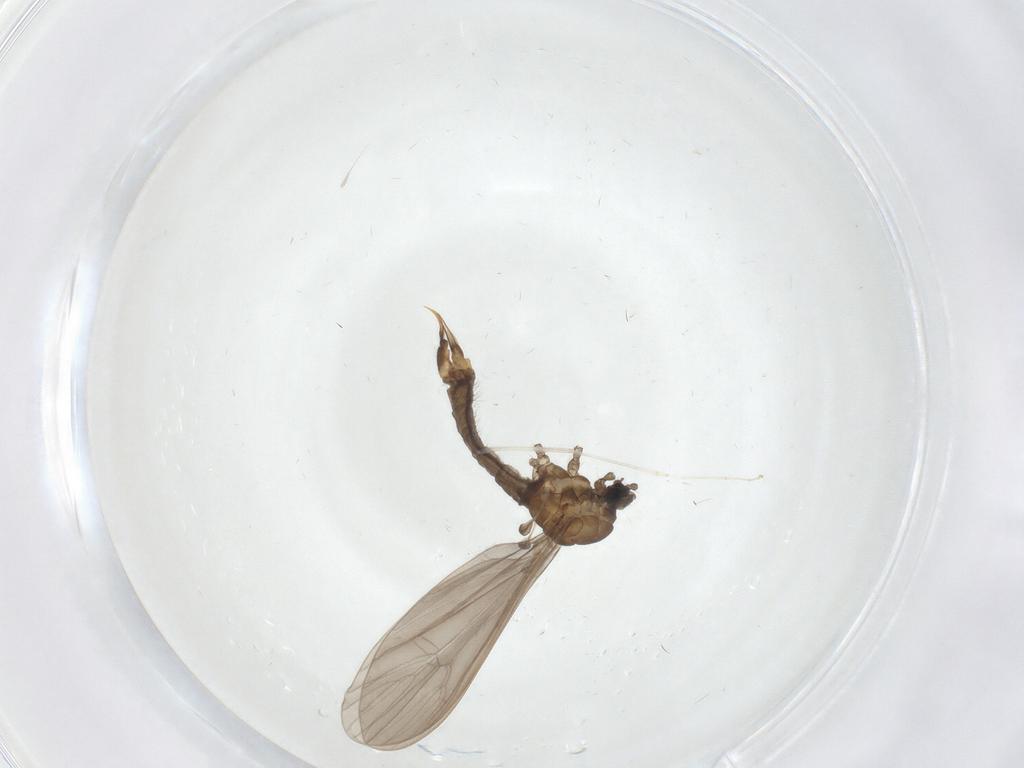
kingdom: Animalia
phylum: Arthropoda
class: Insecta
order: Diptera
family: Limoniidae
